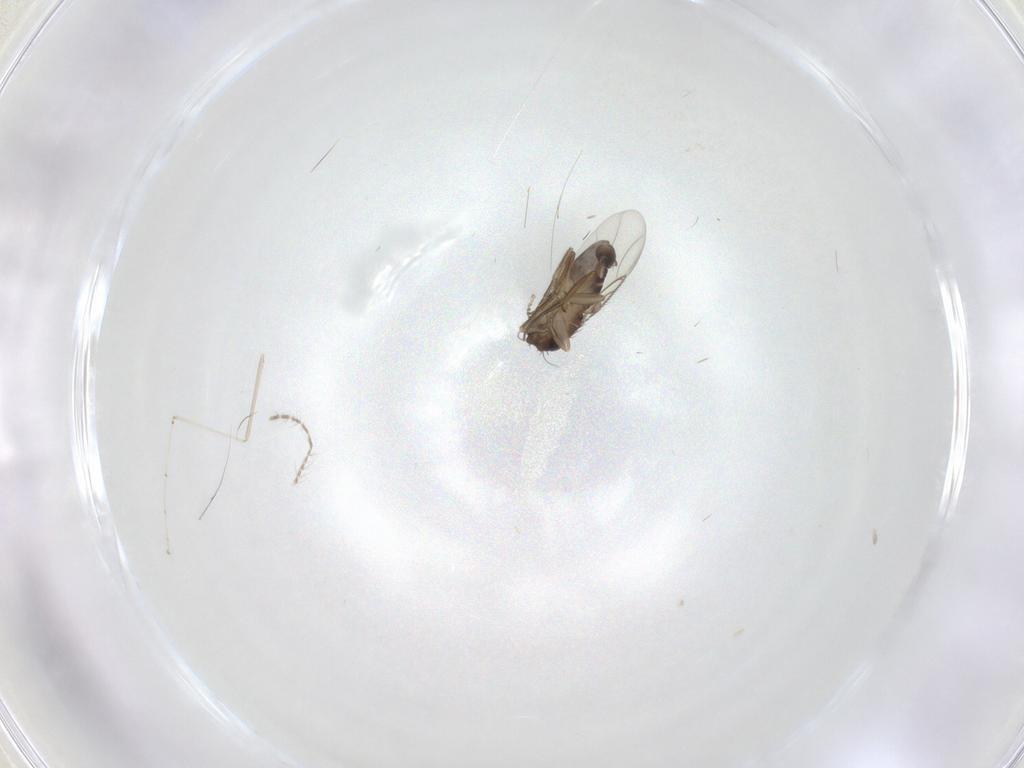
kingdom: Animalia
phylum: Arthropoda
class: Insecta
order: Diptera
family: Phoridae
